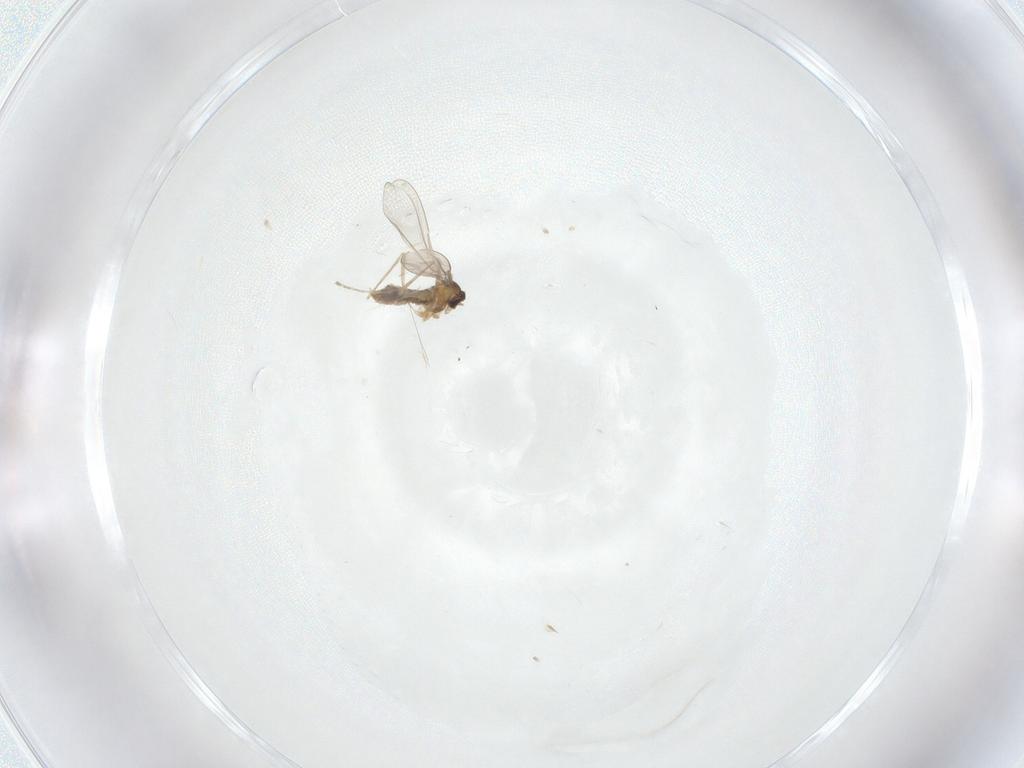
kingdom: Animalia
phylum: Arthropoda
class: Insecta
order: Diptera
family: Cecidomyiidae
